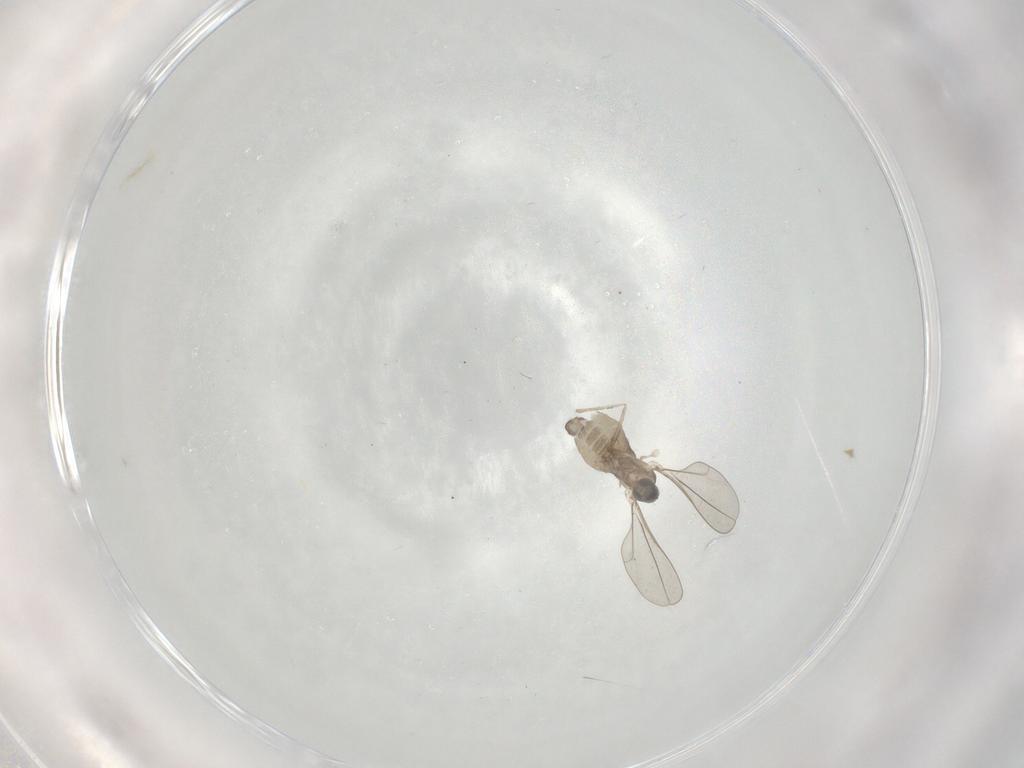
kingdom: Animalia
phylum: Arthropoda
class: Insecta
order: Diptera
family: Cecidomyiidae
